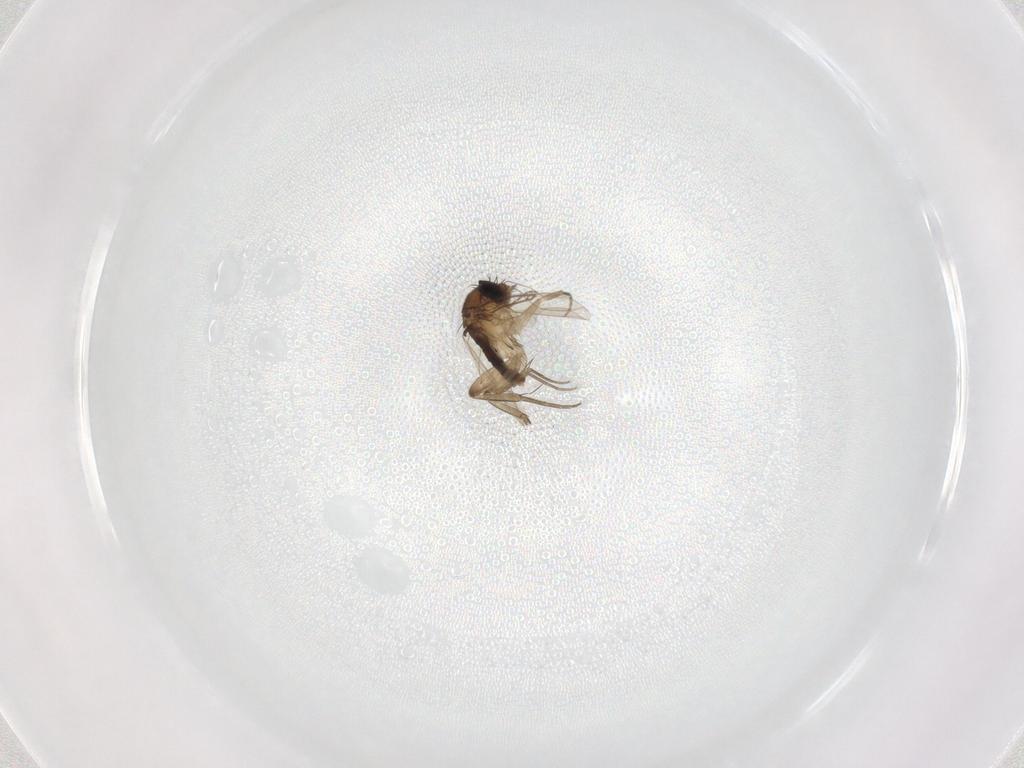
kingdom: Animalia
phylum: Arthropoda
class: Insecta
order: Diptera
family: Phoridae
